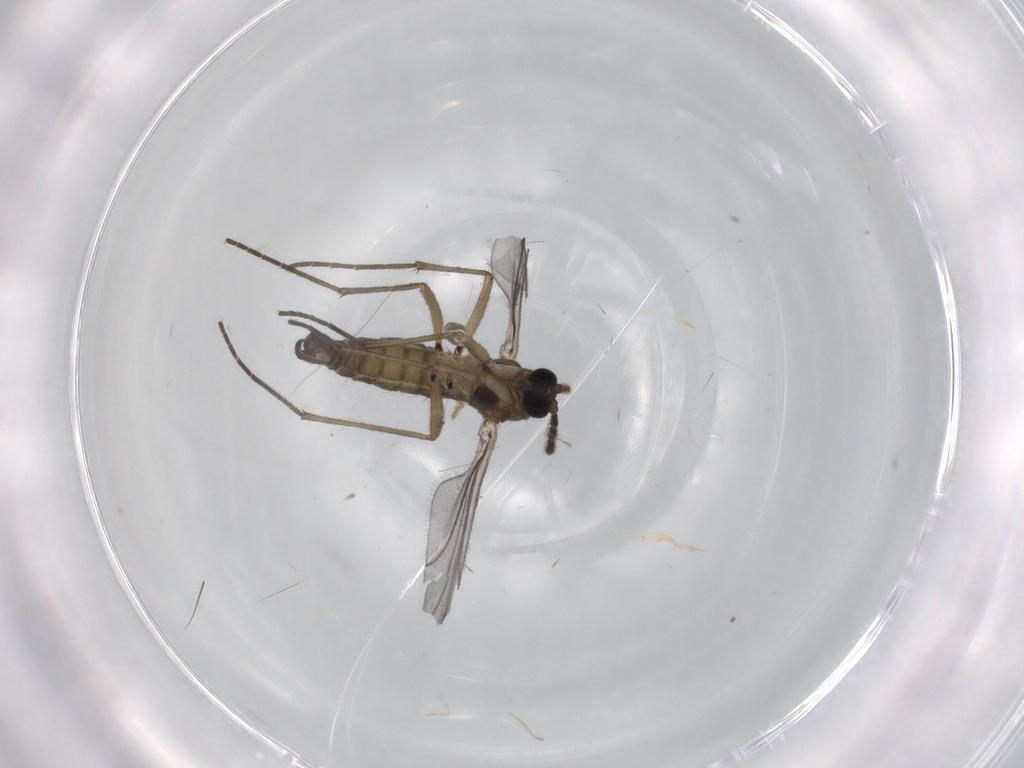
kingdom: Animalia
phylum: Arthropoda
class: Insecta
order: Diptera
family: Sciaridae
